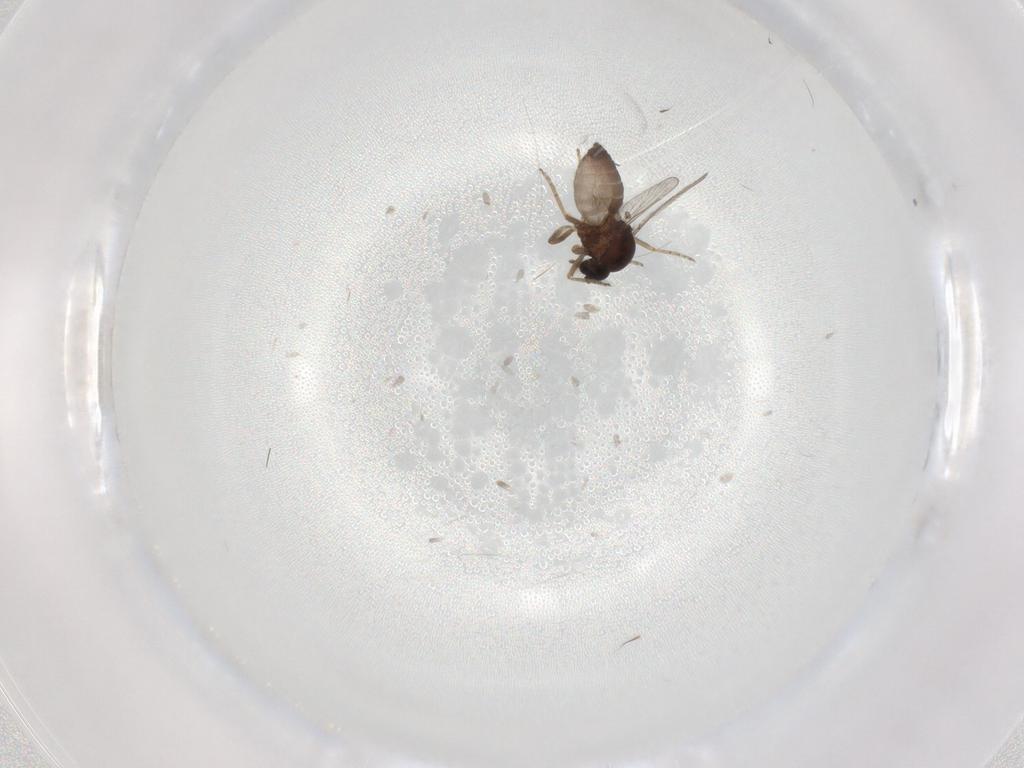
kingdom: Animalia
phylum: Arthropoda
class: Insecta
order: Diptera
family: Ceratopogonidae
